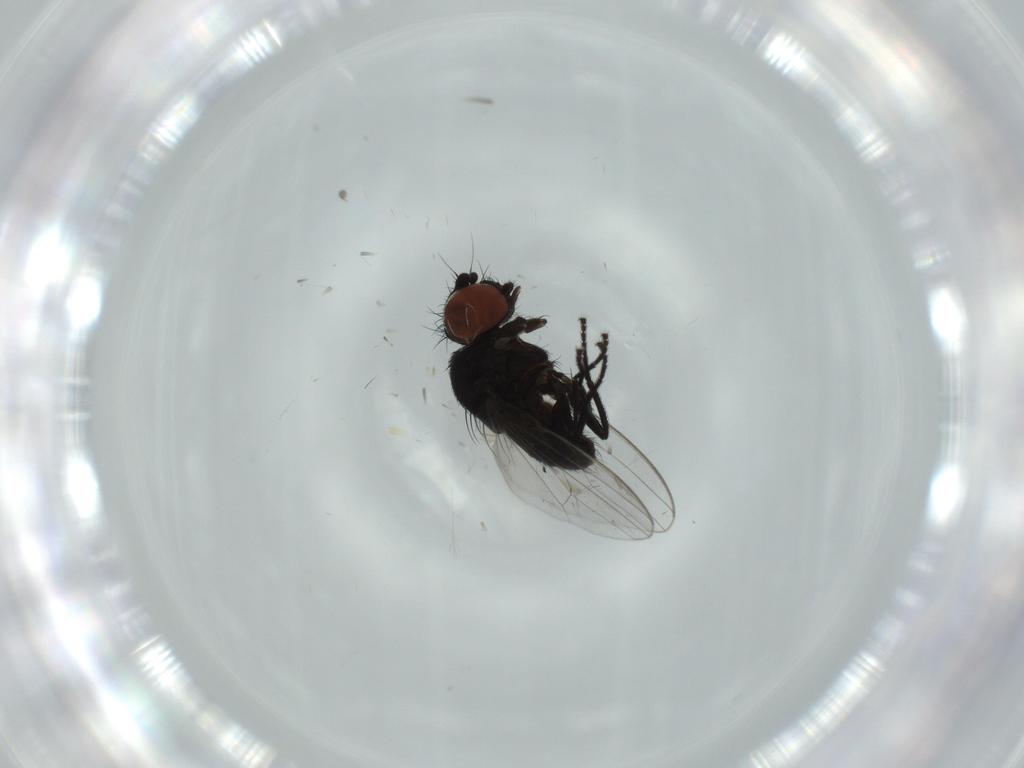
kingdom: Animalia
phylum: Arthropoda
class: Insecta
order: Diptera
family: Milichiidae
